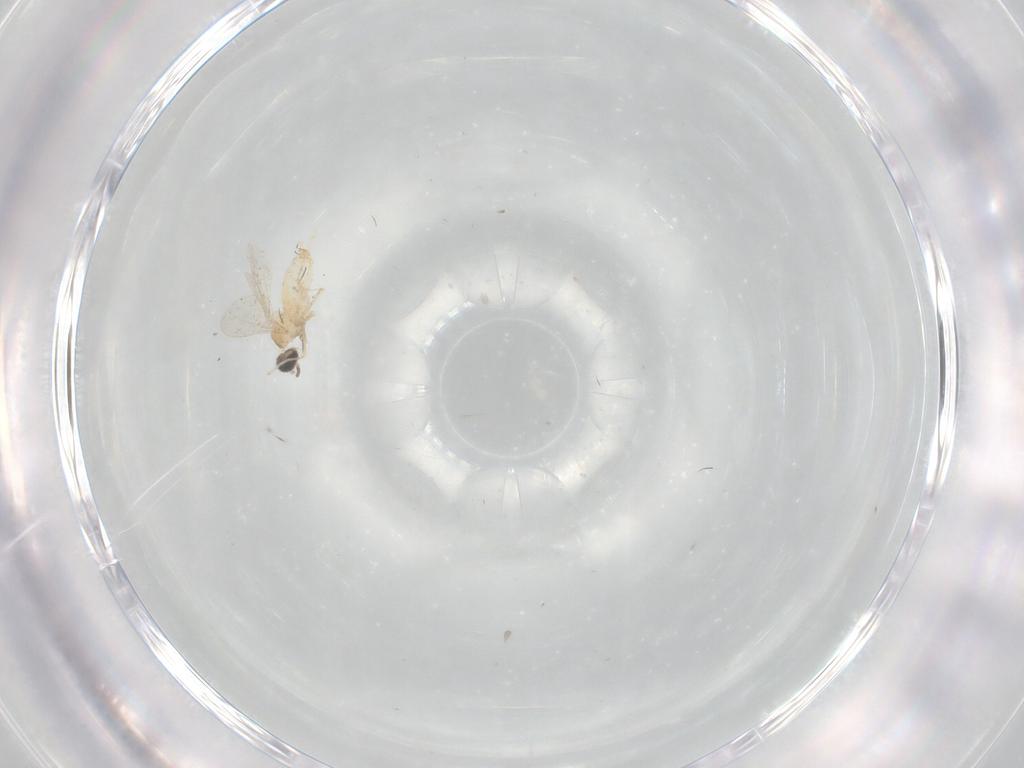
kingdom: Animalia
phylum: Arthropoda
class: Insecta
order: Diptera
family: Cecidomyiidae
